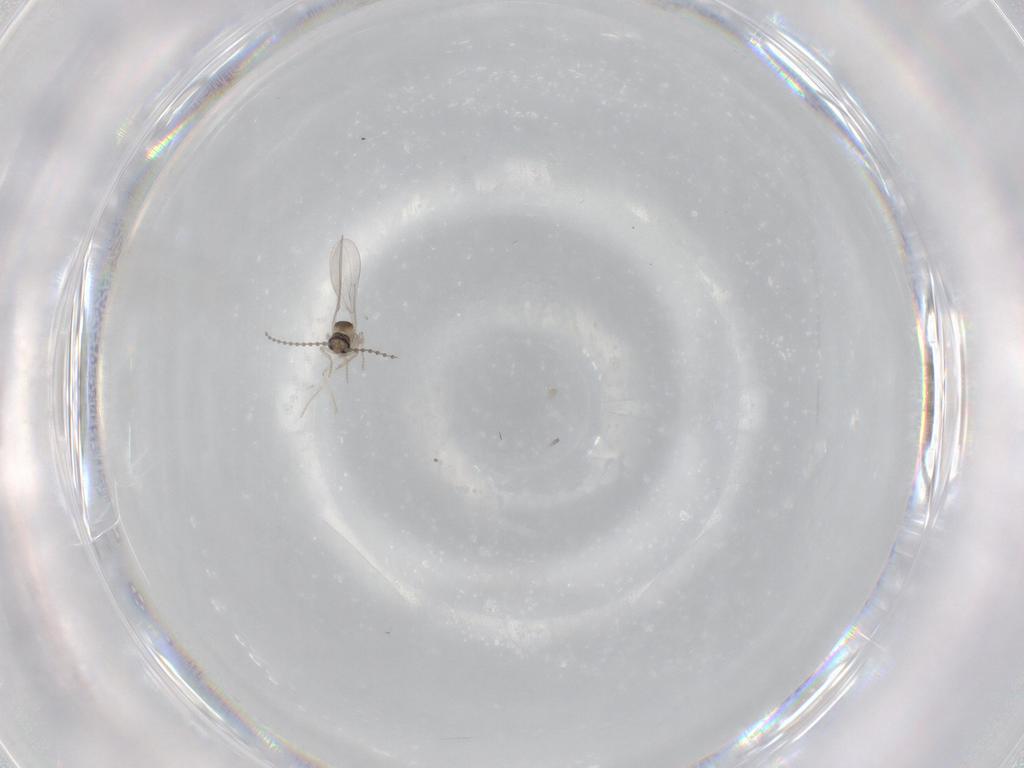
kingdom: Animalia
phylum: Arthropoda
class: Insecta
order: Diptera
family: Cecidomyiidae
